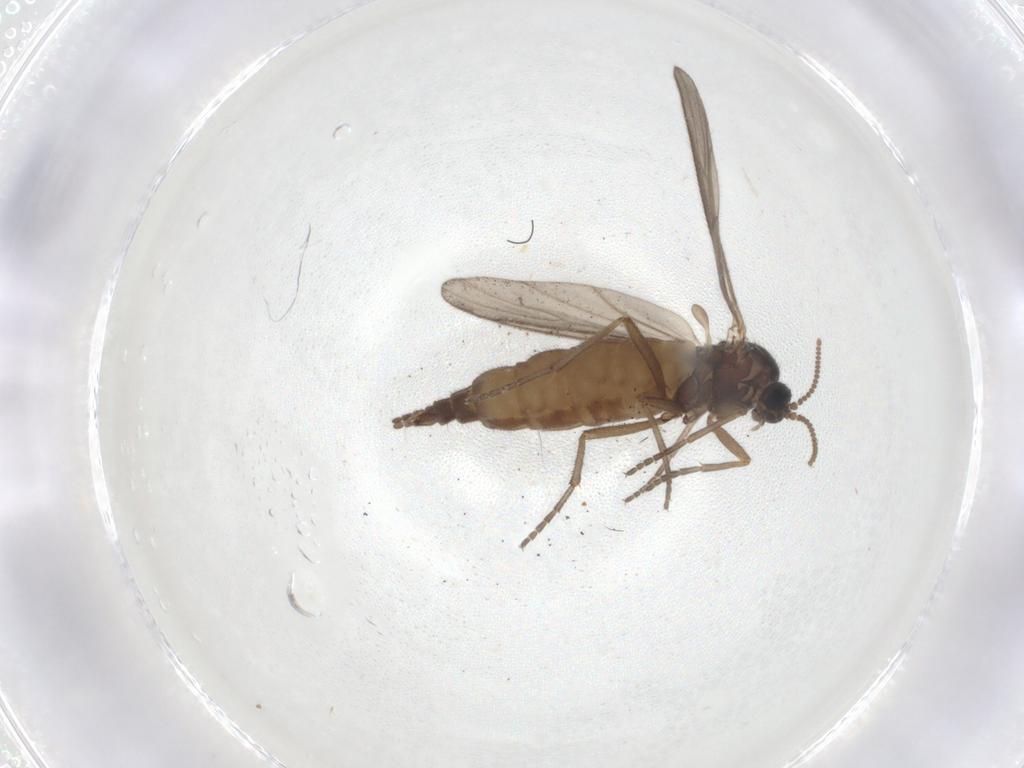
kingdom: Animalia
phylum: Arthropoda
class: Insecta
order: Diptera
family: Sciaridae
